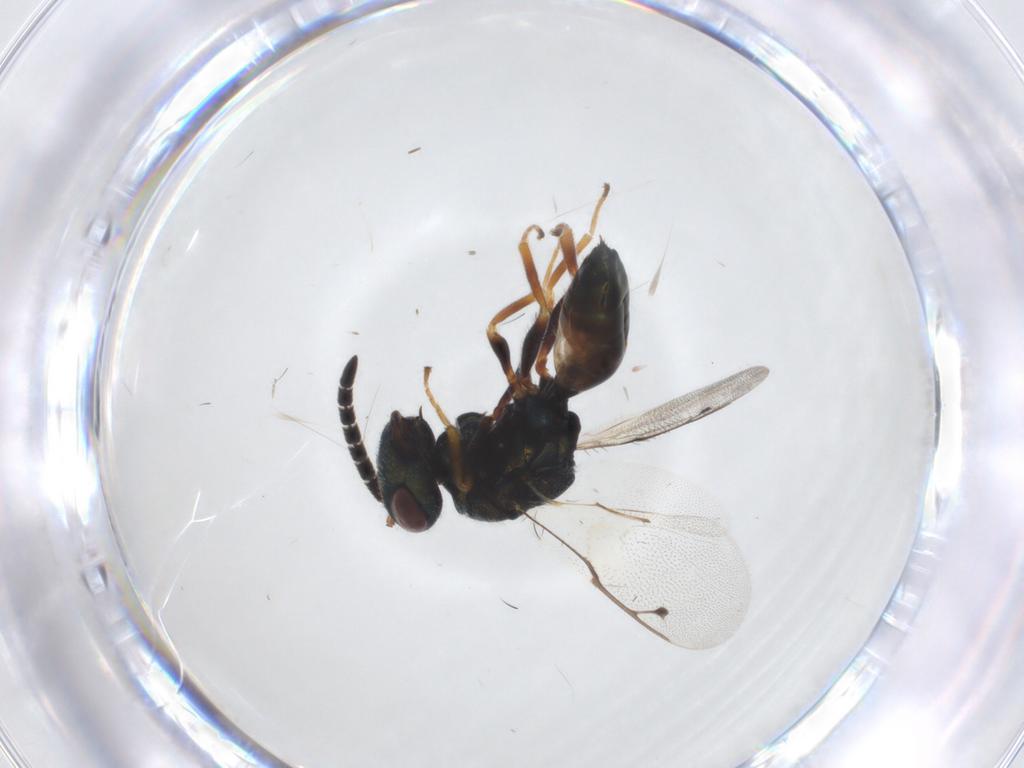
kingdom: Animalia
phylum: Arthropoda
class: Insecta
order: Hymenoptera
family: Pteromalidae
